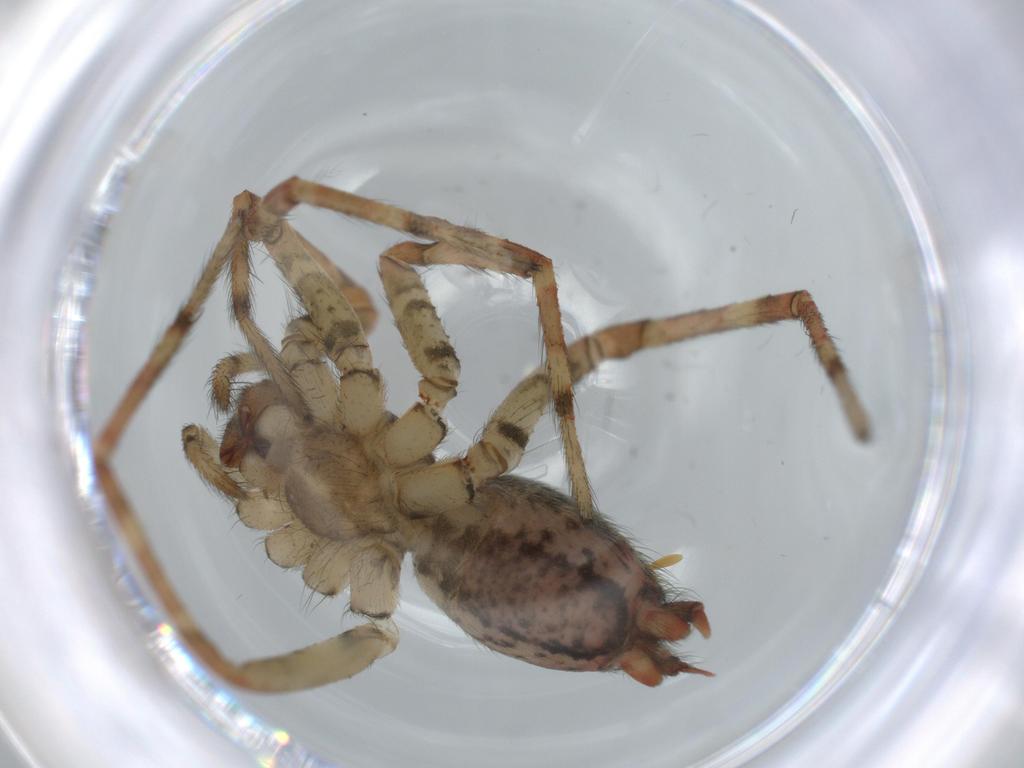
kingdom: Animalia
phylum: Arthropoda
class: Arachnida
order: Araneae
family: Agelenidae
